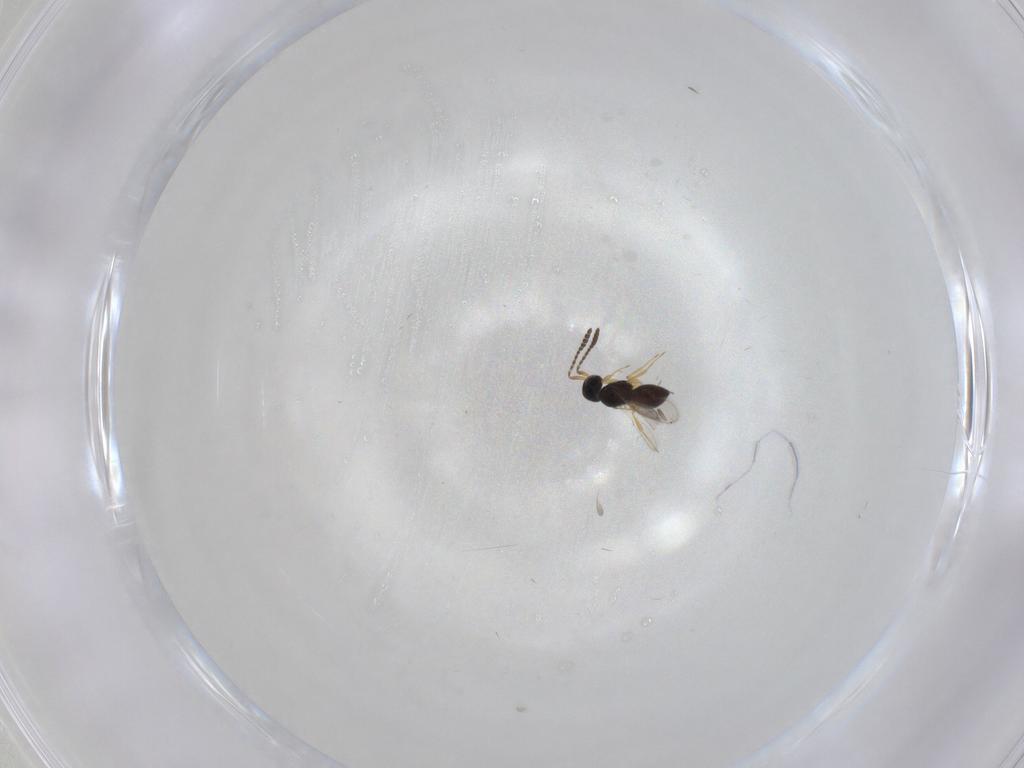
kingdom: Animalia
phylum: Arthropoda
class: Insecta
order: Hymenoptera
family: Scelionidae
